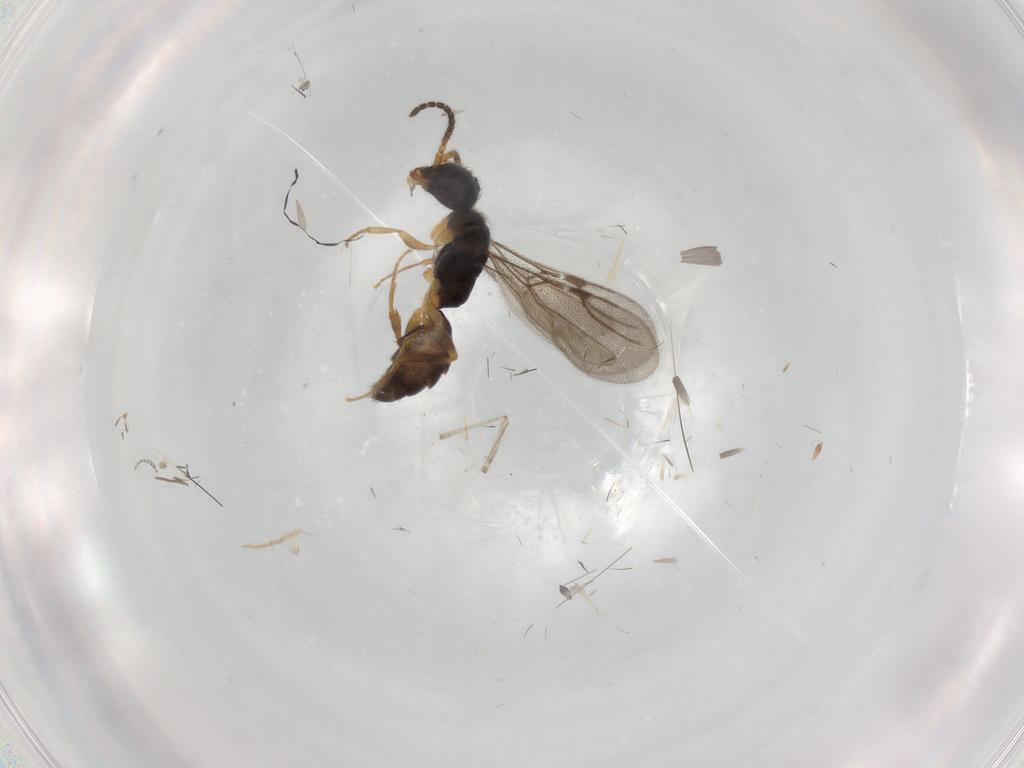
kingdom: Animalia
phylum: Arthropoda
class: Insecta
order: Hymenoptera
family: Bethylidae
